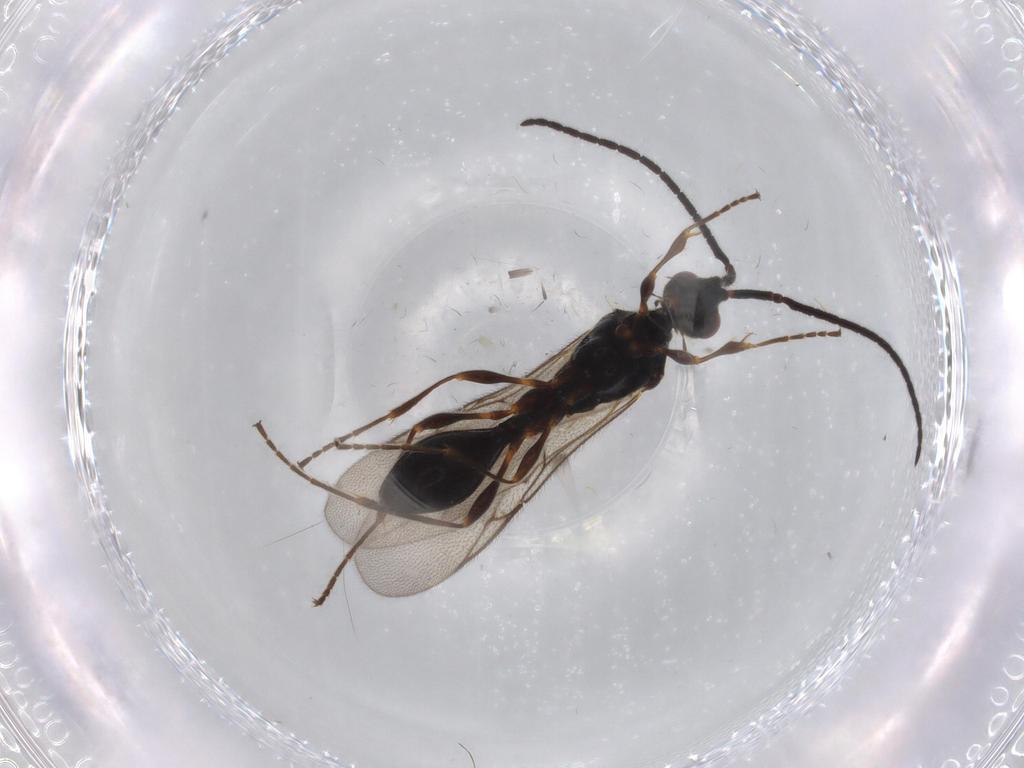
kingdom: Animalia
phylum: Arthropoda
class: Insecta
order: Hymenoptera
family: Figitidae
